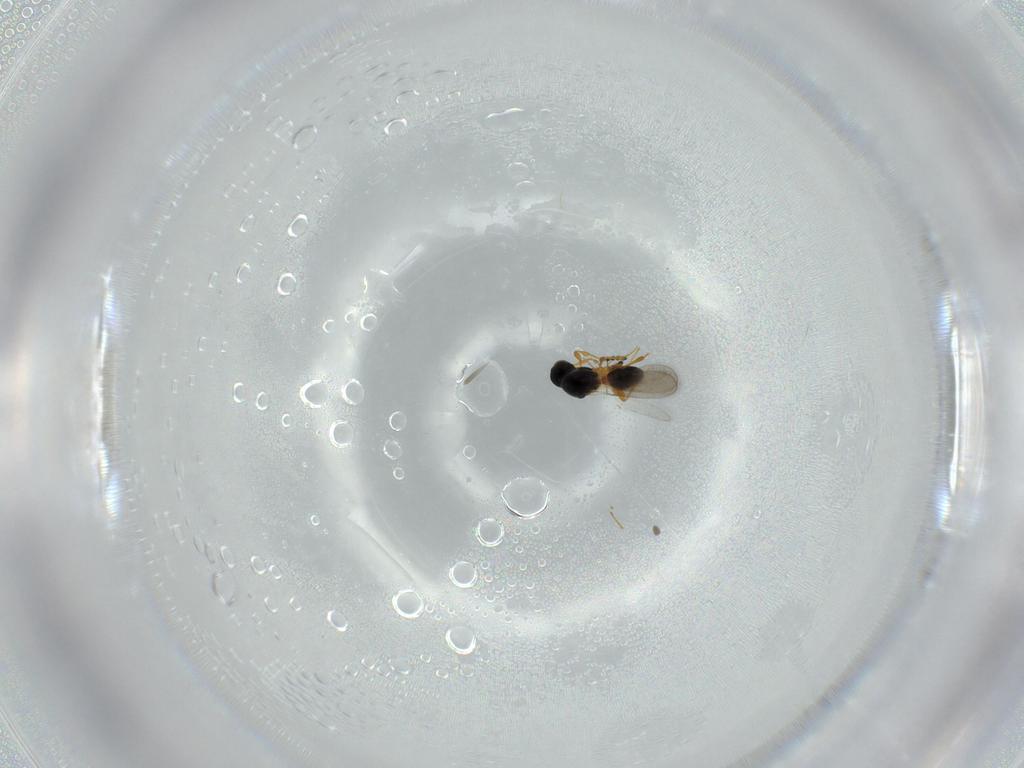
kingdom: Animalia
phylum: Arthropoda
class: Insecta
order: Hymenoptera
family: Platygastridae
